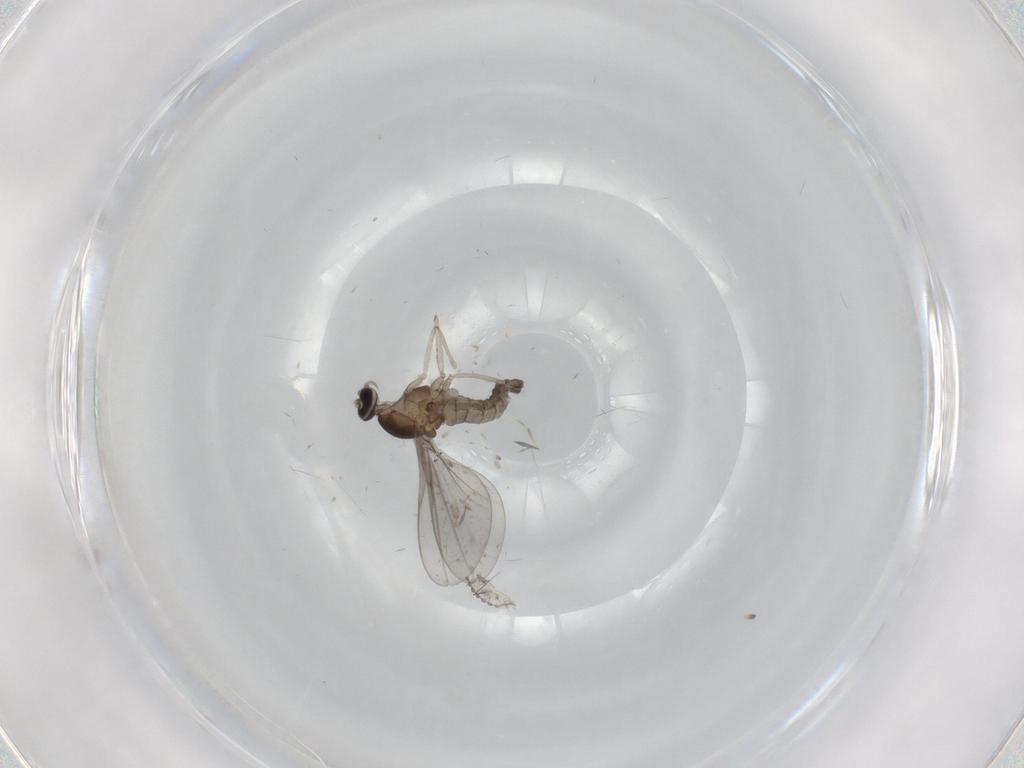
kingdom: Animalia
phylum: Arthropoda
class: Insecta
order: Diptera
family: Cecidomyiidae
